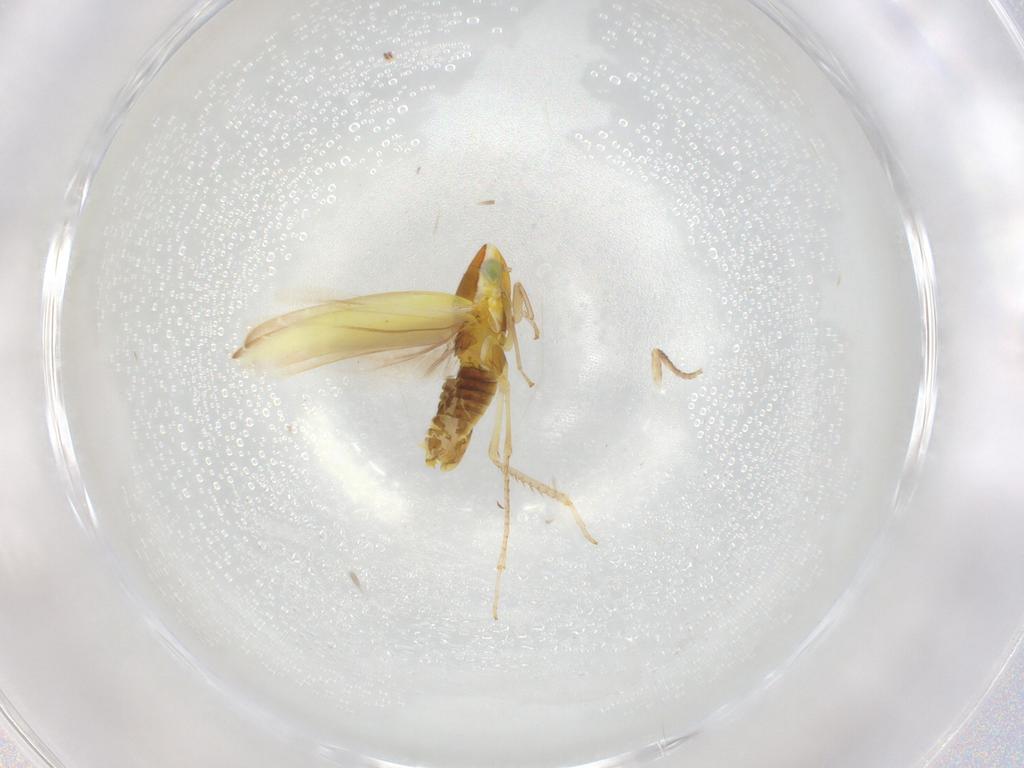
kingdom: Animalia
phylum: Arthropoda
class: Insecta
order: Hemiptera
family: Cicadellidae
